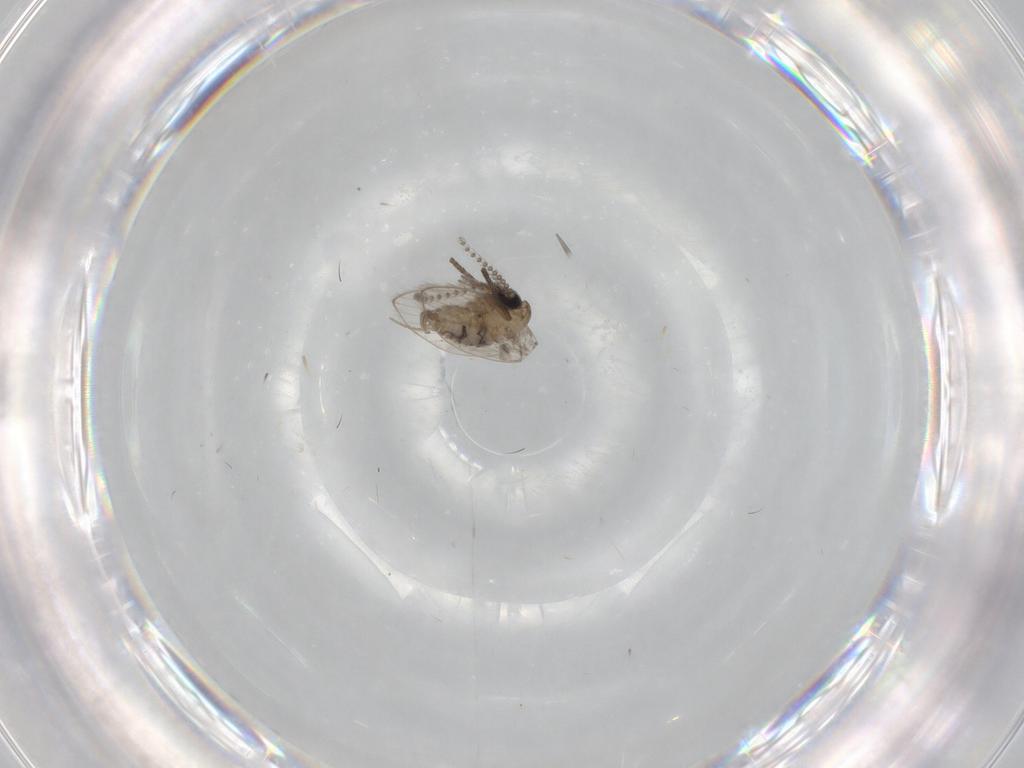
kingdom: Animalia
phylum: Arthropoda
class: Insecta
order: Diptera
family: Psychodidae
